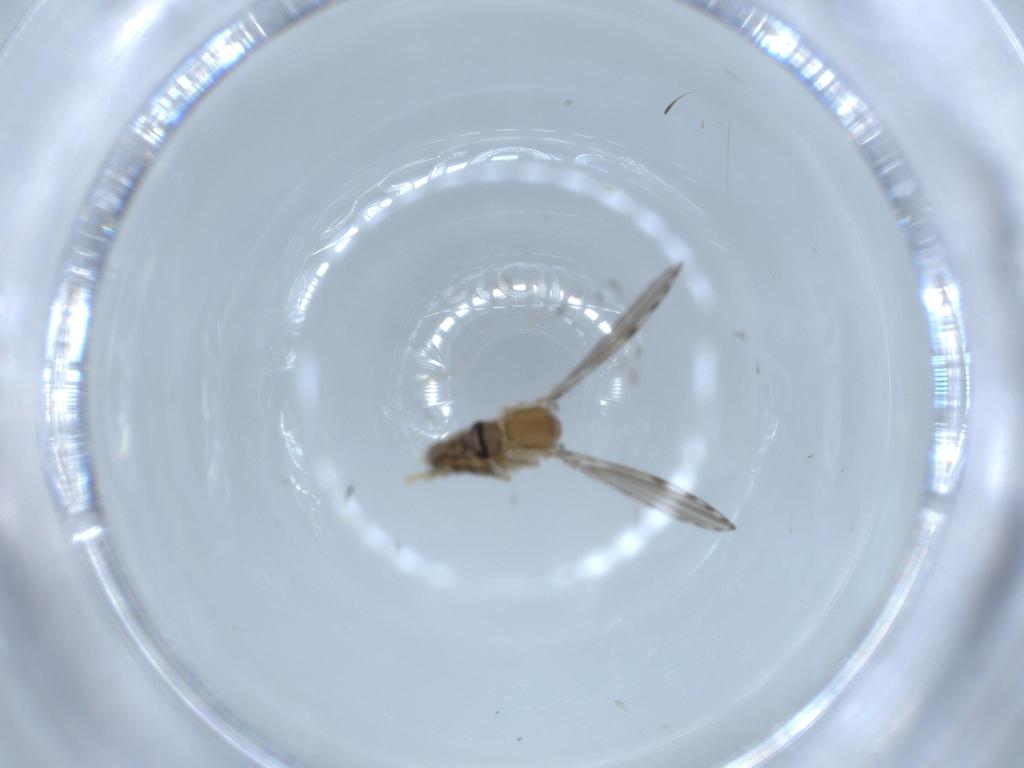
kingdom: Animalia
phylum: Arthropoda
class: Insecta
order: Diptera
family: Psychodidae
